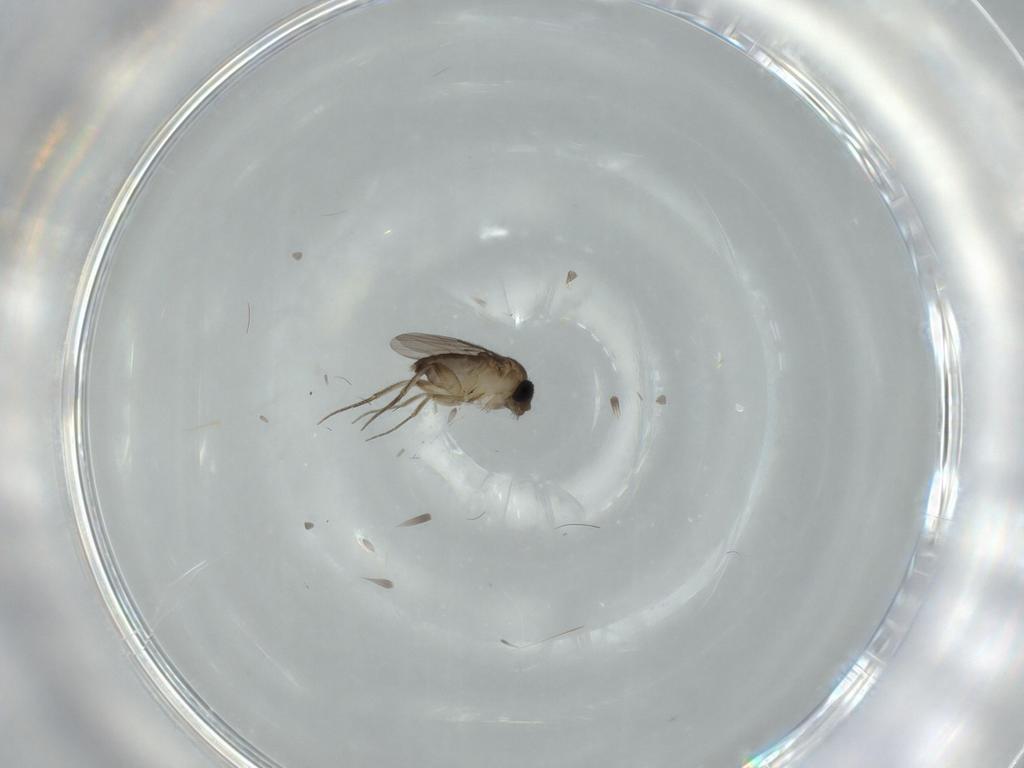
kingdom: Animalia
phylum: Arthropoda
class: Insecta
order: Diptera
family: Phoridae
